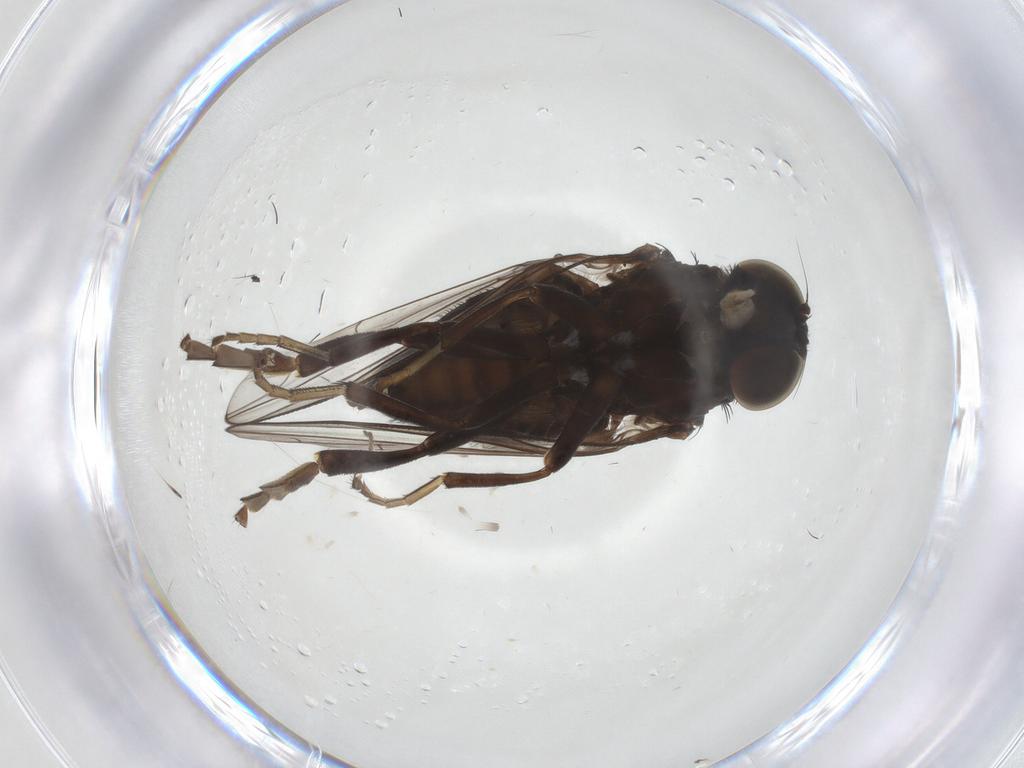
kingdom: Animalia
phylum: Arthropoda
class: Insecta
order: Diptera
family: Platypezidae
